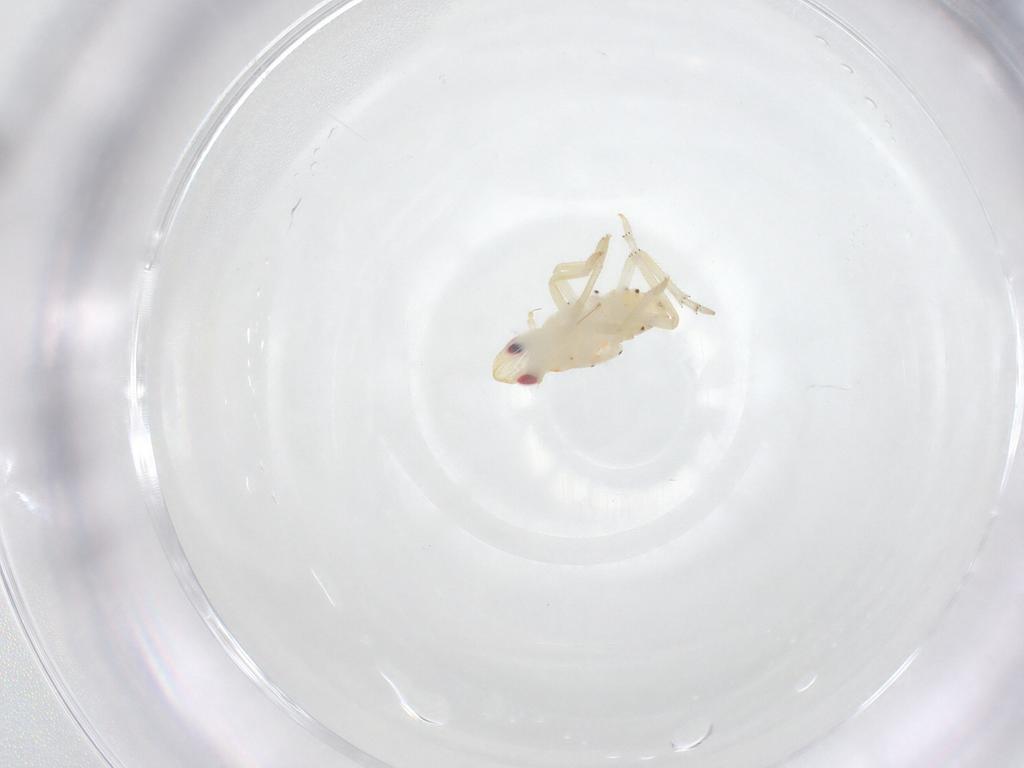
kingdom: Animalia
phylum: Arthropoda
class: Insecta
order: Hemiptera
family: Tropiduchidae
